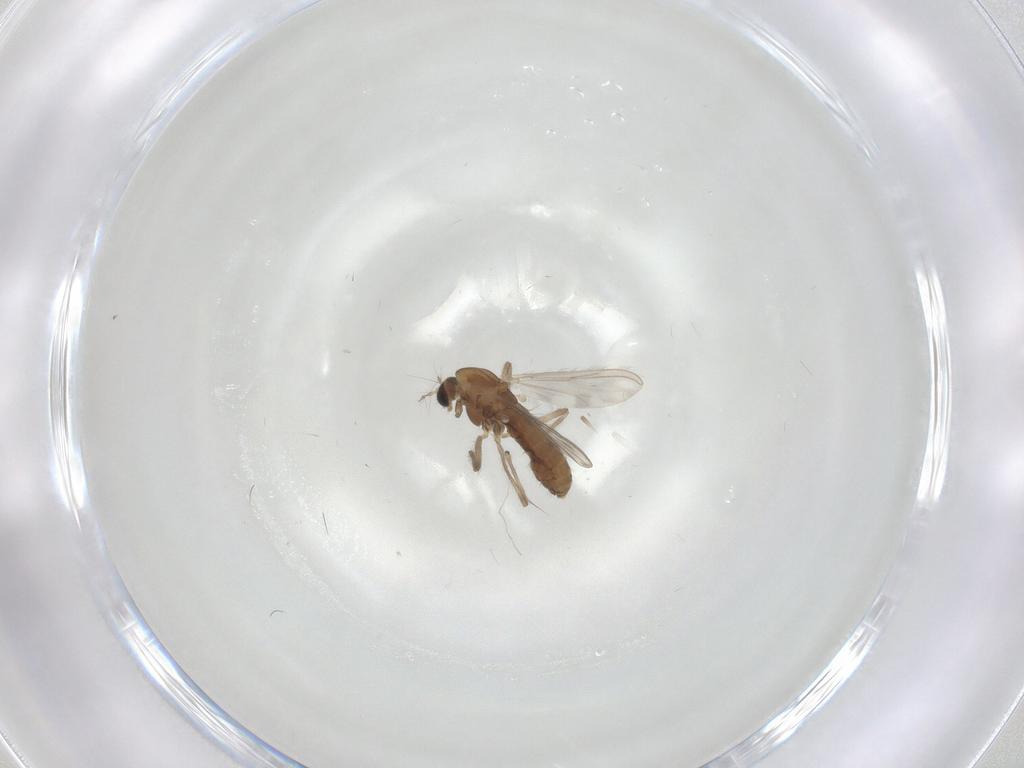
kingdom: Animalia
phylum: Arthropoda
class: Insecta
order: Diptera
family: Chironomidae
